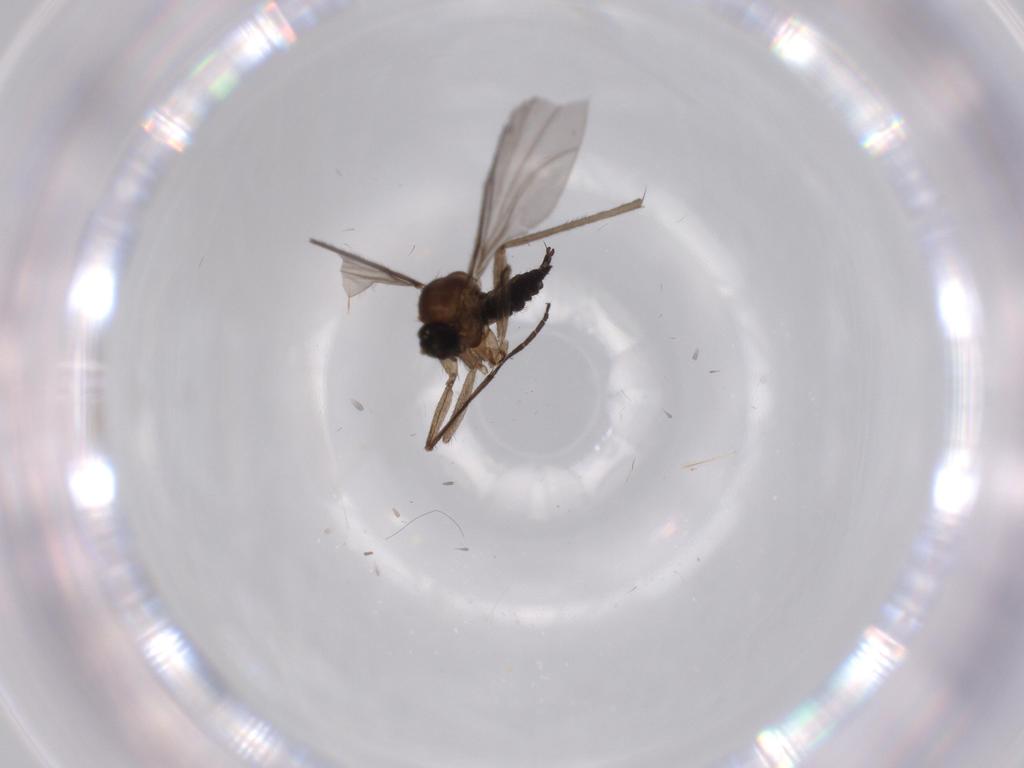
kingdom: Animalia
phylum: Arthropoda
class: Insecta
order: Diptera
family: Sciaridae
